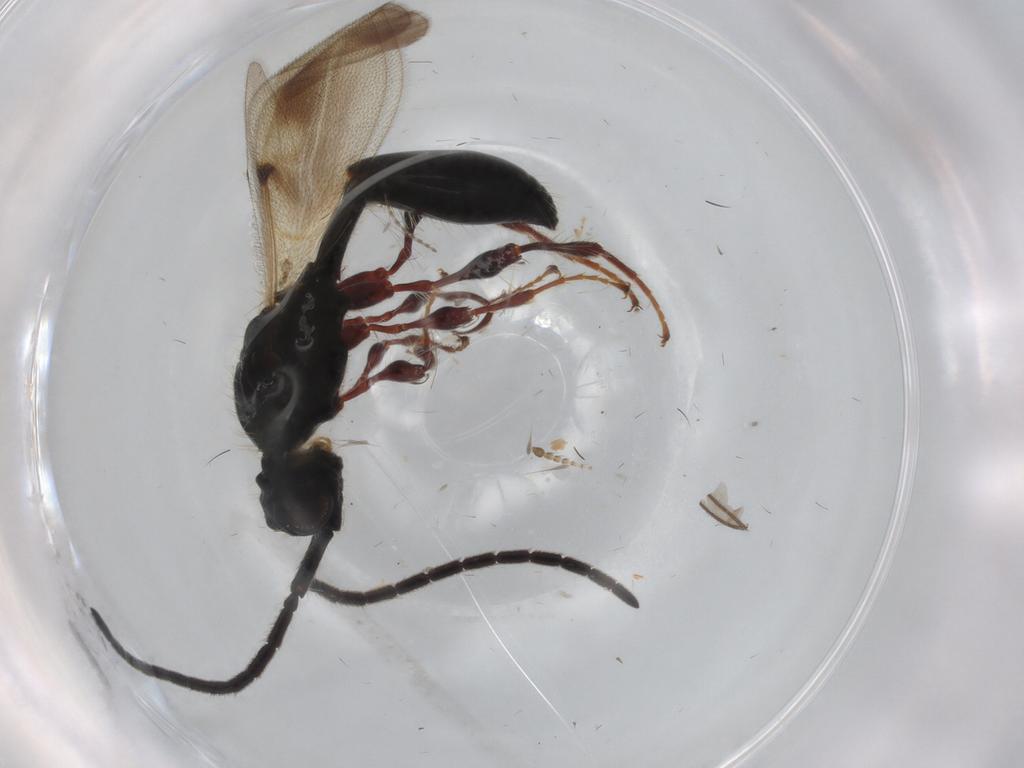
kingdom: Animalia
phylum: Arthropoda
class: Insecta
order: Hymenoptera
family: Diapriidae
